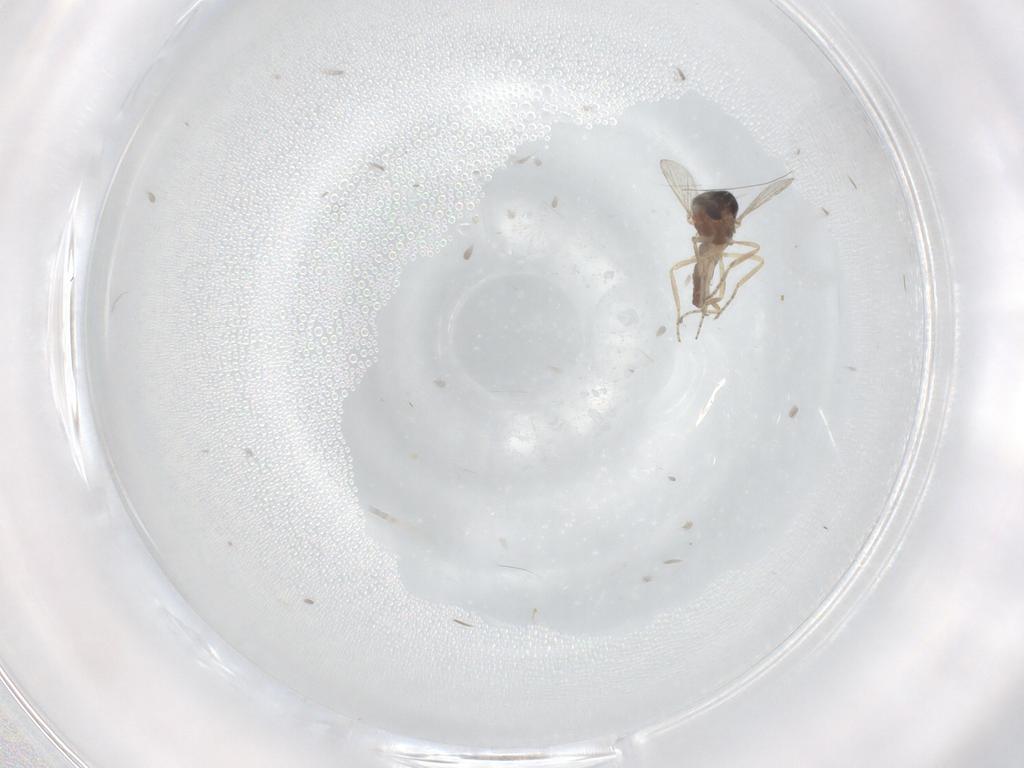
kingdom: Animalia
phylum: Arthropoda
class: Insecta
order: Diptera
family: Ceratopogonidae
